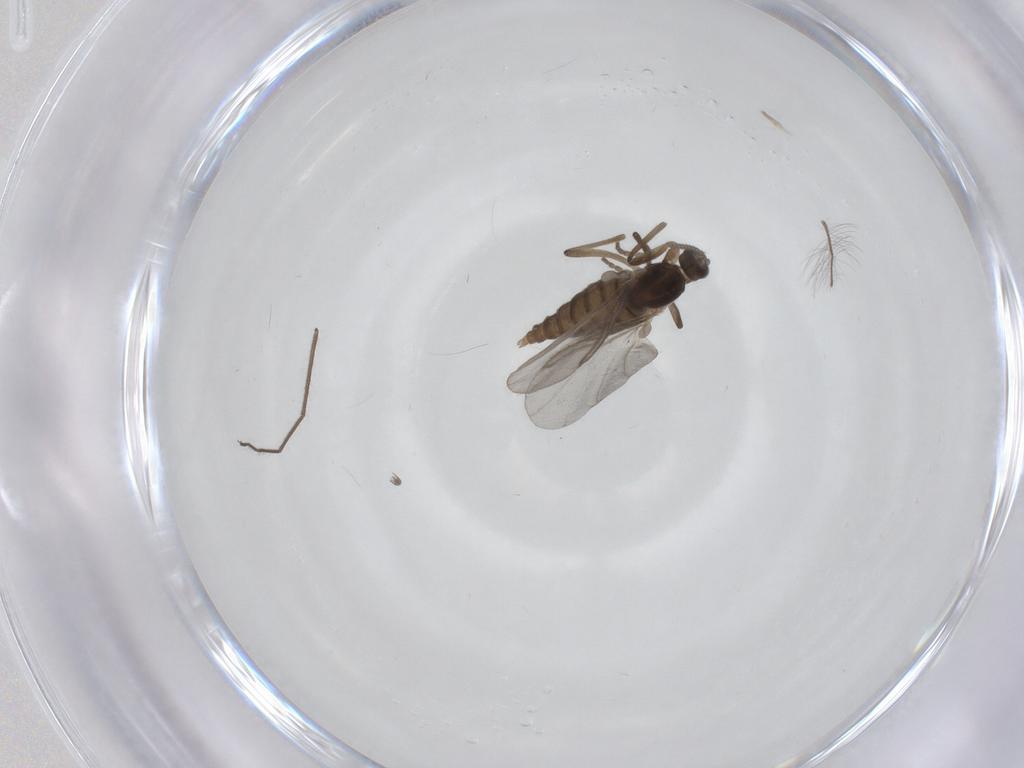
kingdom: Animalia
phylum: Arthropoda
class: Insecta
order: Diptera
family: Cecidomyiidae
